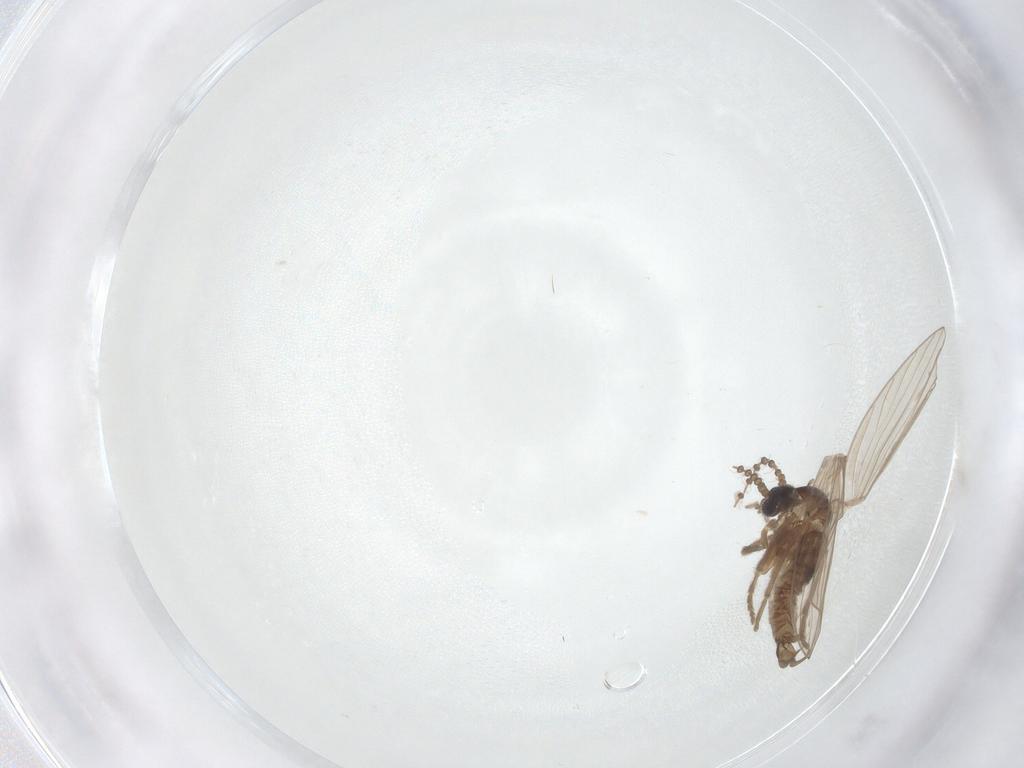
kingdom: Animalia
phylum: Arthropoda
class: Insecta
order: Diptera
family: Psychodidae
